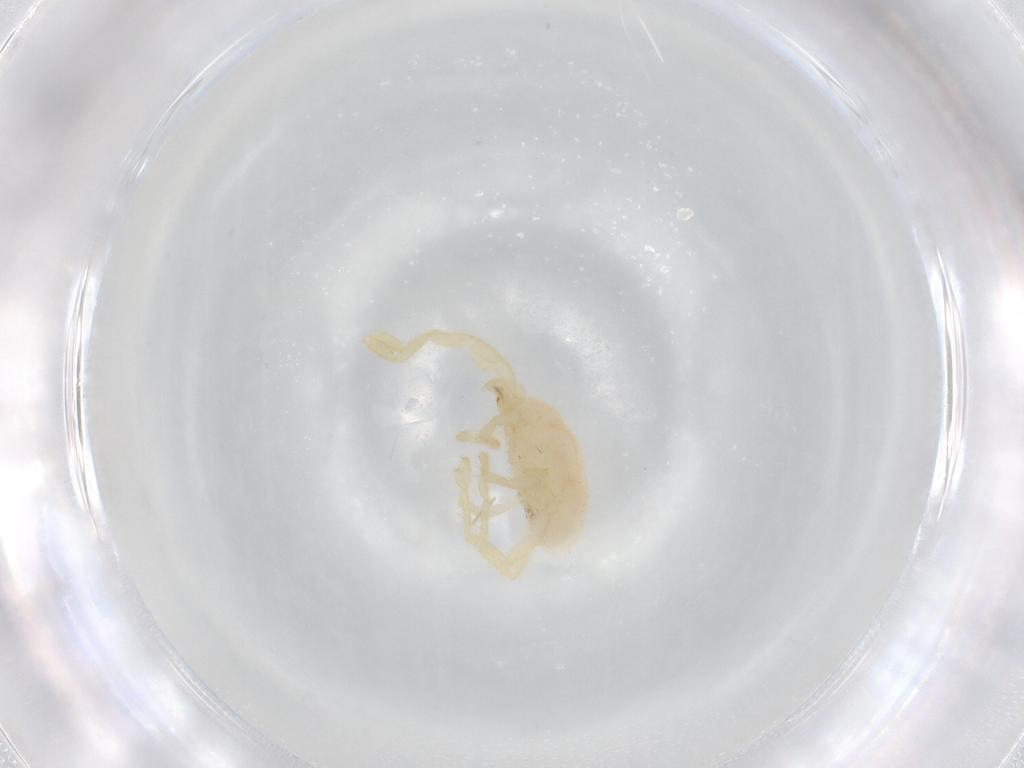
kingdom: Animalia
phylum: Arthropoda
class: Arachnida
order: Trombidiformes
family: Erythraeidae
